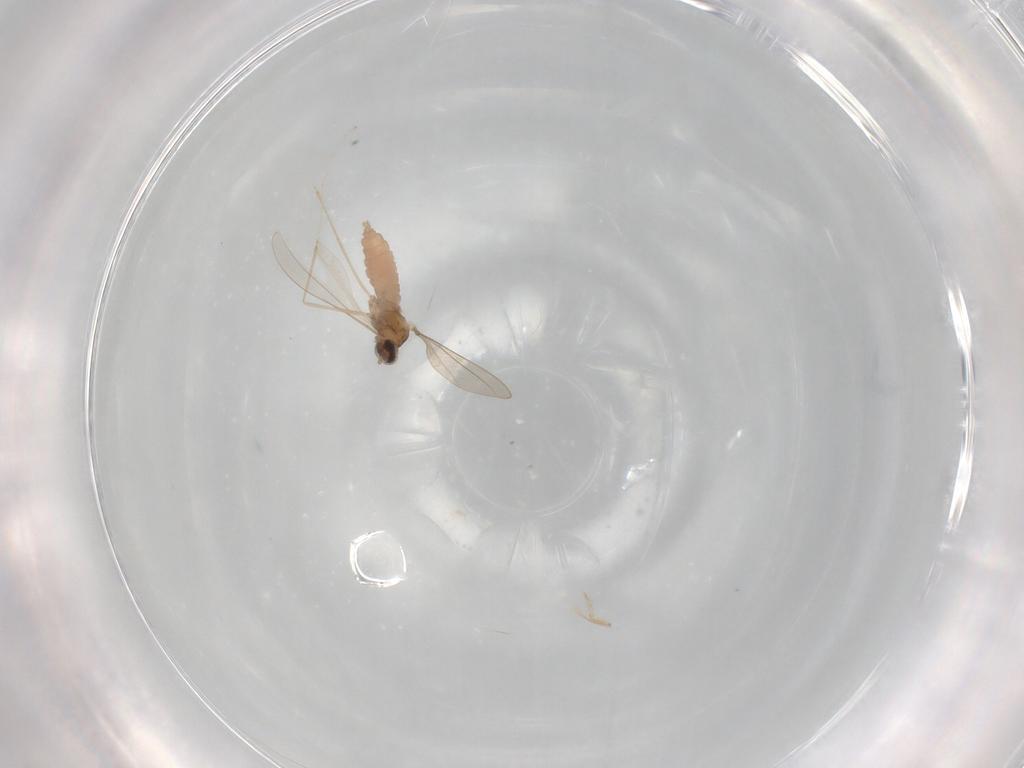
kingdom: Animalia
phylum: Arthropoda
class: Insecta
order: Diptera
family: Cecidomyiidae
